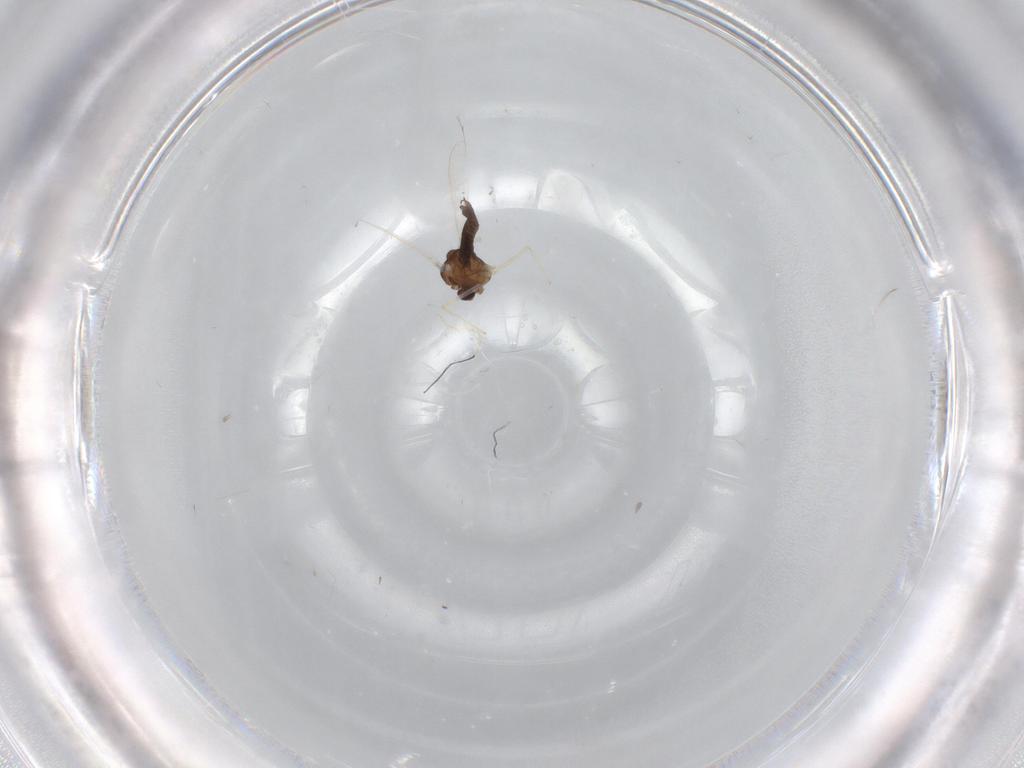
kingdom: Animalia
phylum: Arthropoda
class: Insecta
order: Diptera
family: Chironomidae
